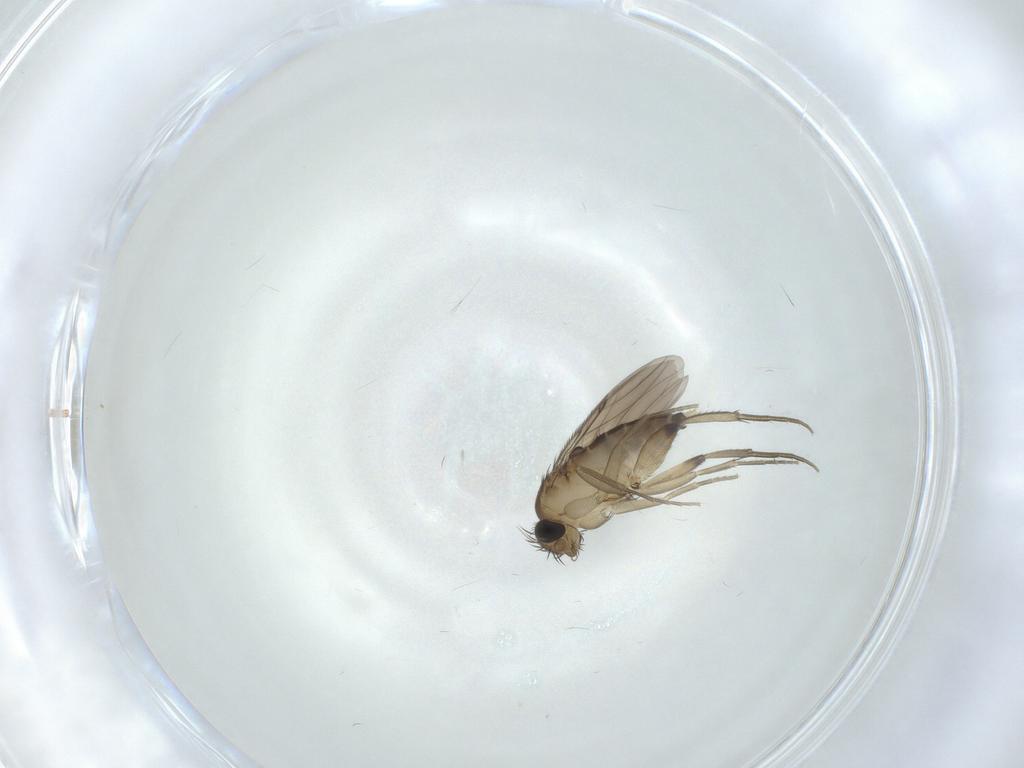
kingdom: Animalia
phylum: Arthropoda
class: Insecta
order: Diptera
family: Phoridae
